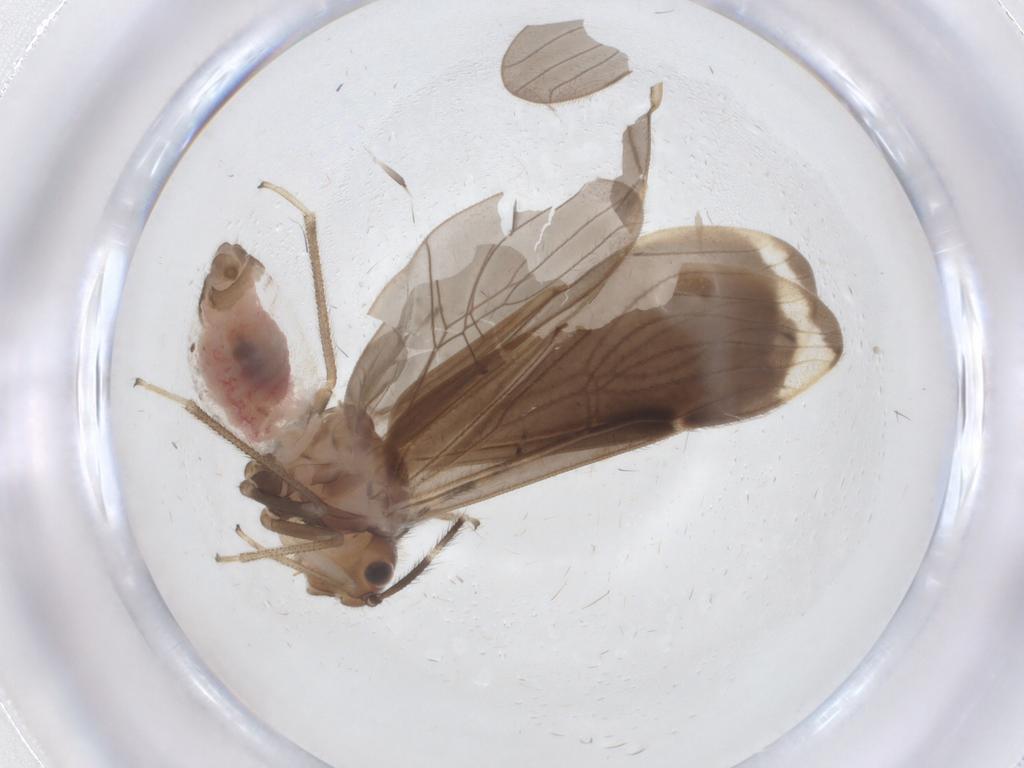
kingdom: Animalia
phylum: Arthropoda
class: Insecta
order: Psocodea
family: Amphipsocidae
